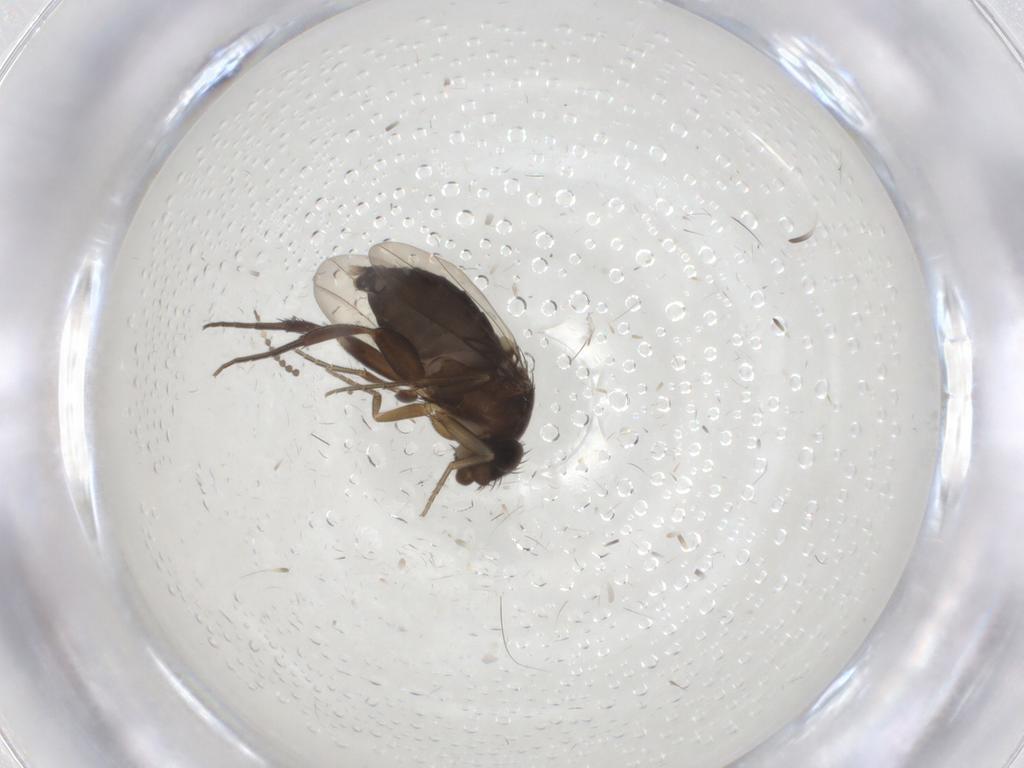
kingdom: Animalia
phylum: Arthropoda
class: Insecta
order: Diptera
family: Phoridae
